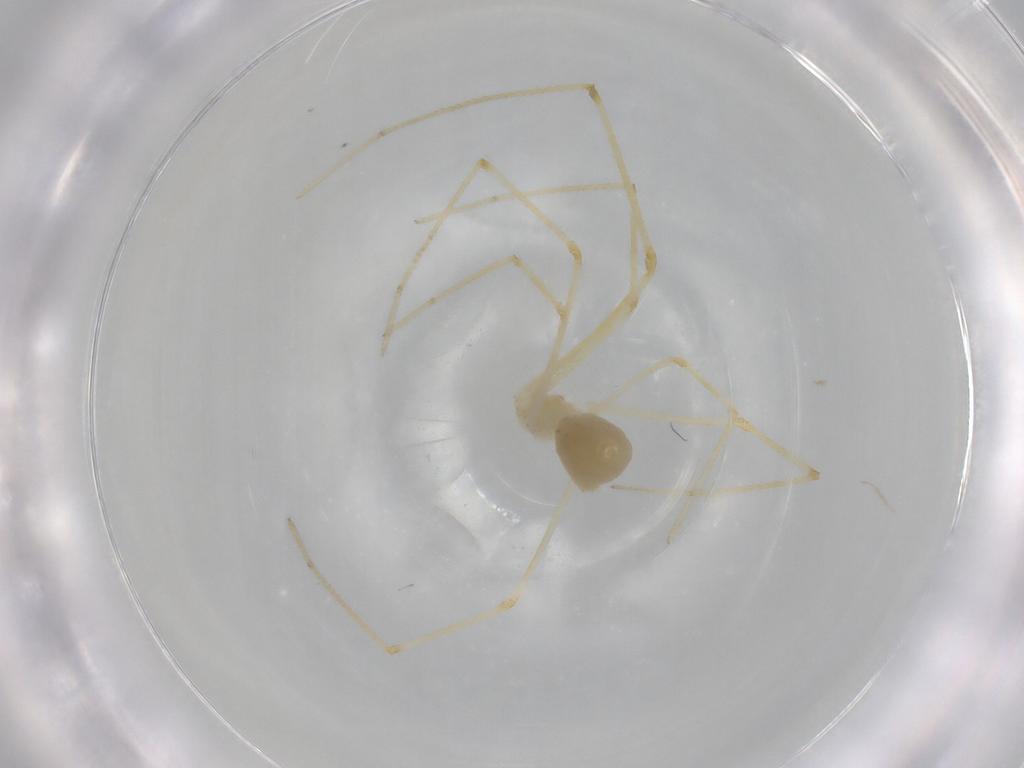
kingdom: Animalia
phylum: Arthropoda
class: Arachnida
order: Araneae
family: Pholcidae
